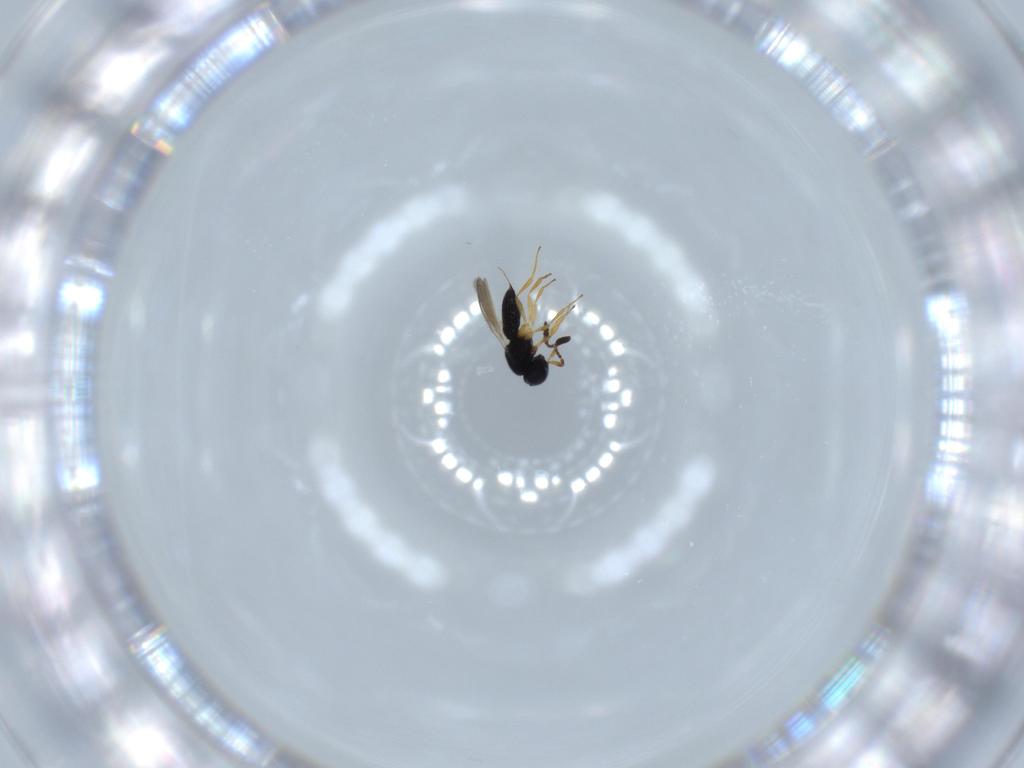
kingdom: Animalia
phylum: Arthropoda
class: Insecta
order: Hymenoptera
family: Scelionidae
